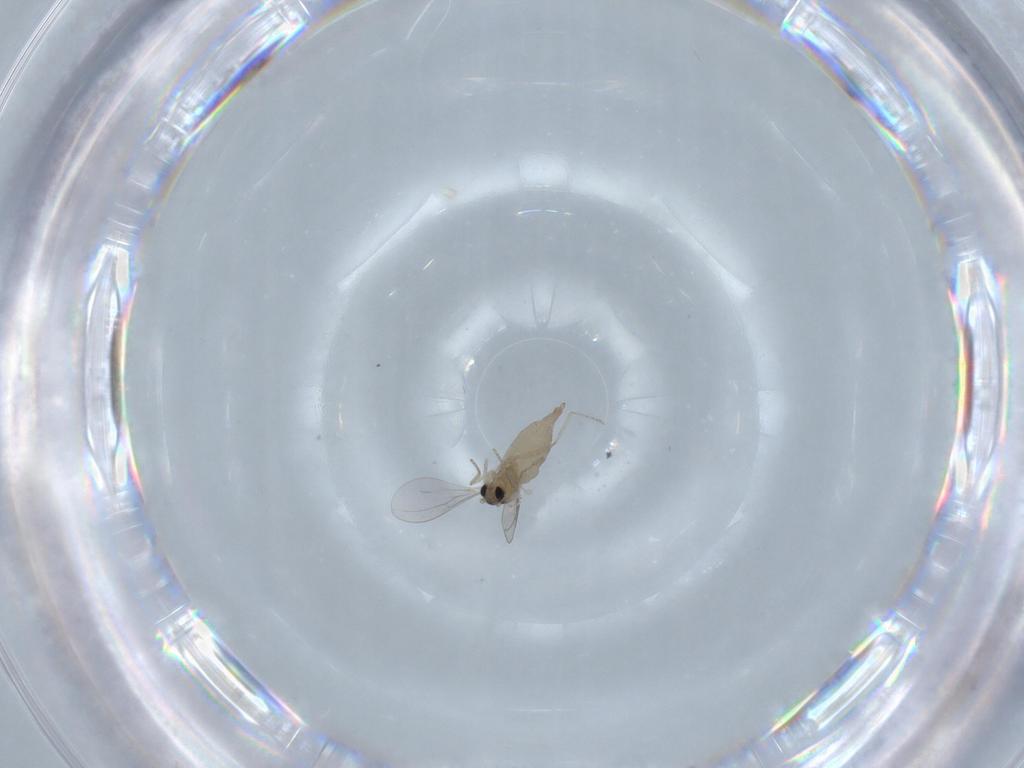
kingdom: Animalia
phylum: Arthropoda
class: Insecta
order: Diptera
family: Cecidomyiidae
